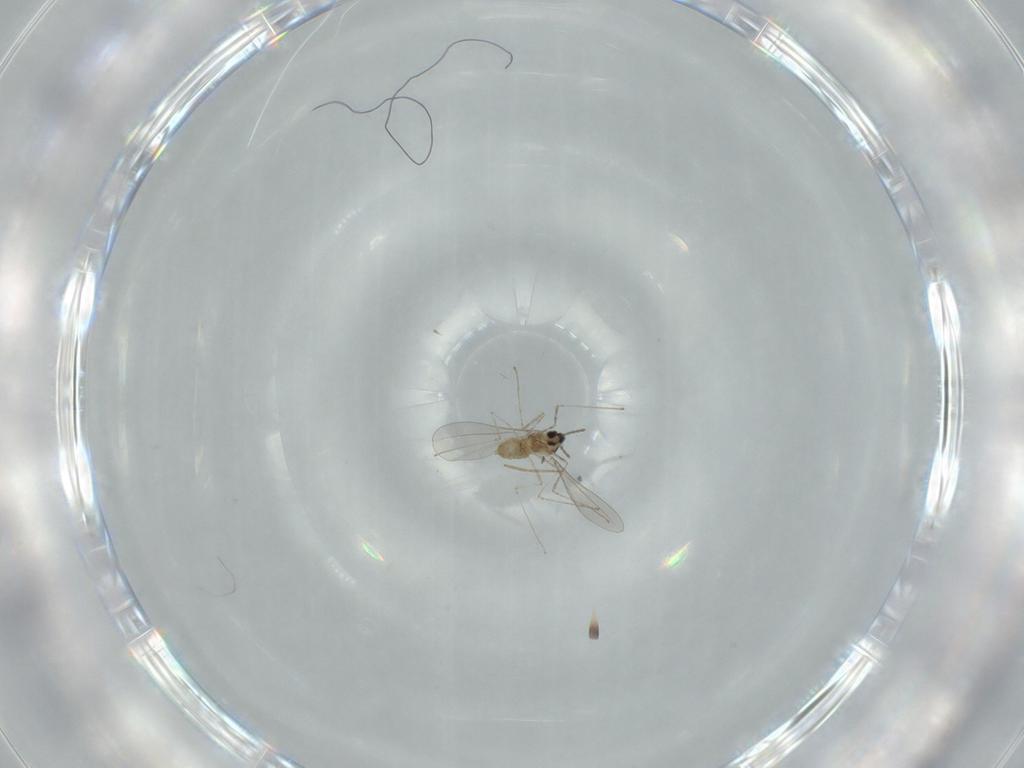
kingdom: Animalia
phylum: Arthropoda
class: Insecta
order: Diptera
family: Cecidomyiidae
